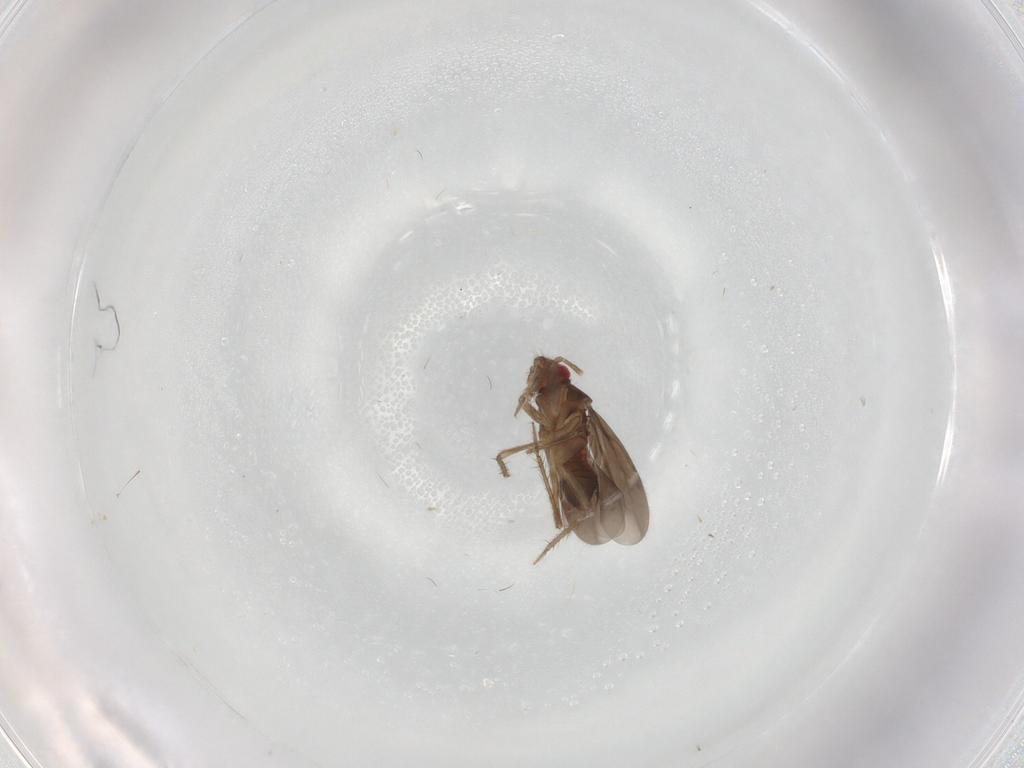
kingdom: Animalia
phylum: Arthropoda
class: Insecta
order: Hemiptera
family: Ceratocombidae
